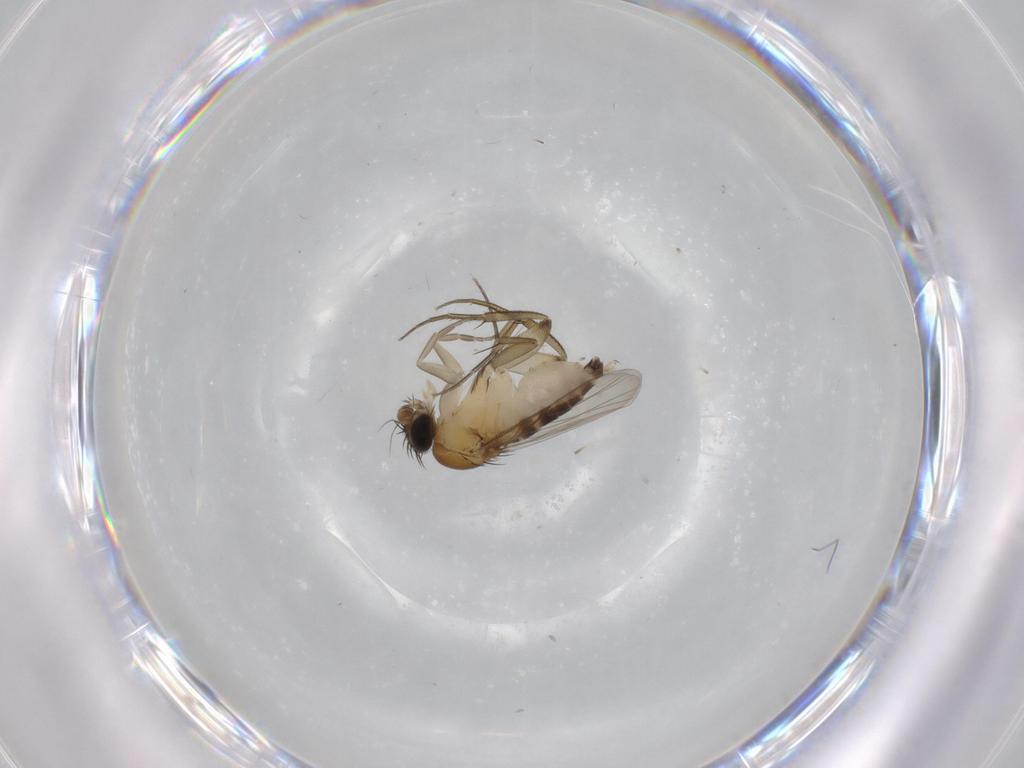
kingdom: Animalia
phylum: Arthropoda
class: Insecta
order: Diptera
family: Phoridae
